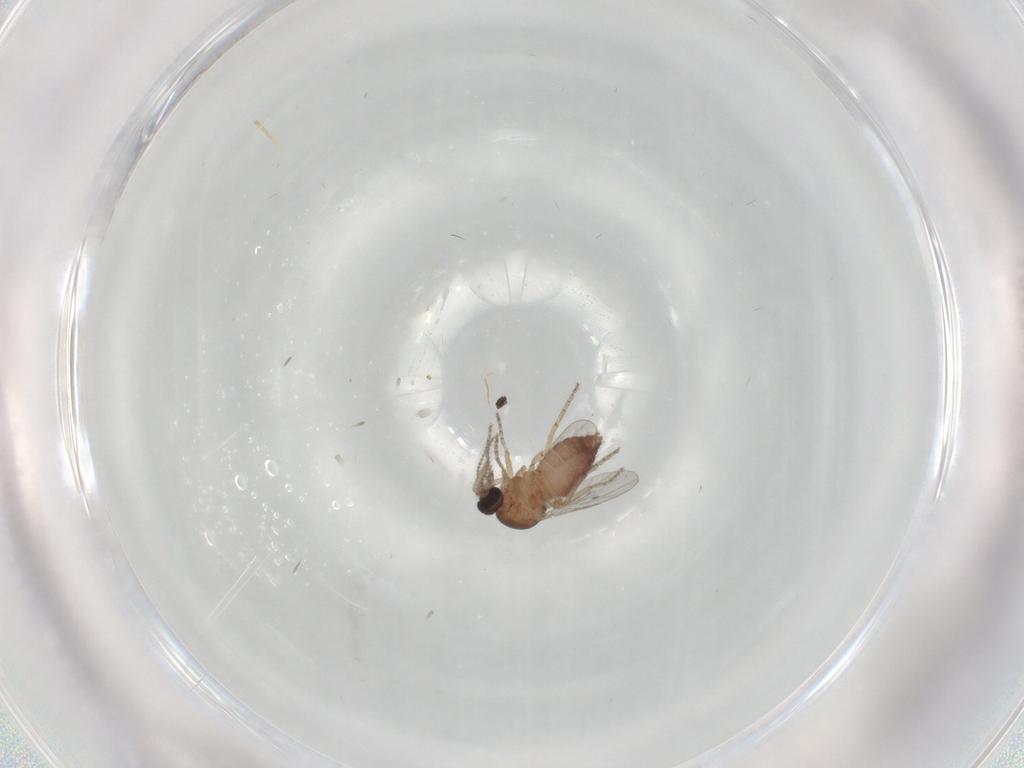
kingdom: Animalia
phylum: Arthropoda
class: Insecta
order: Diptera
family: Ceratopogonidae
